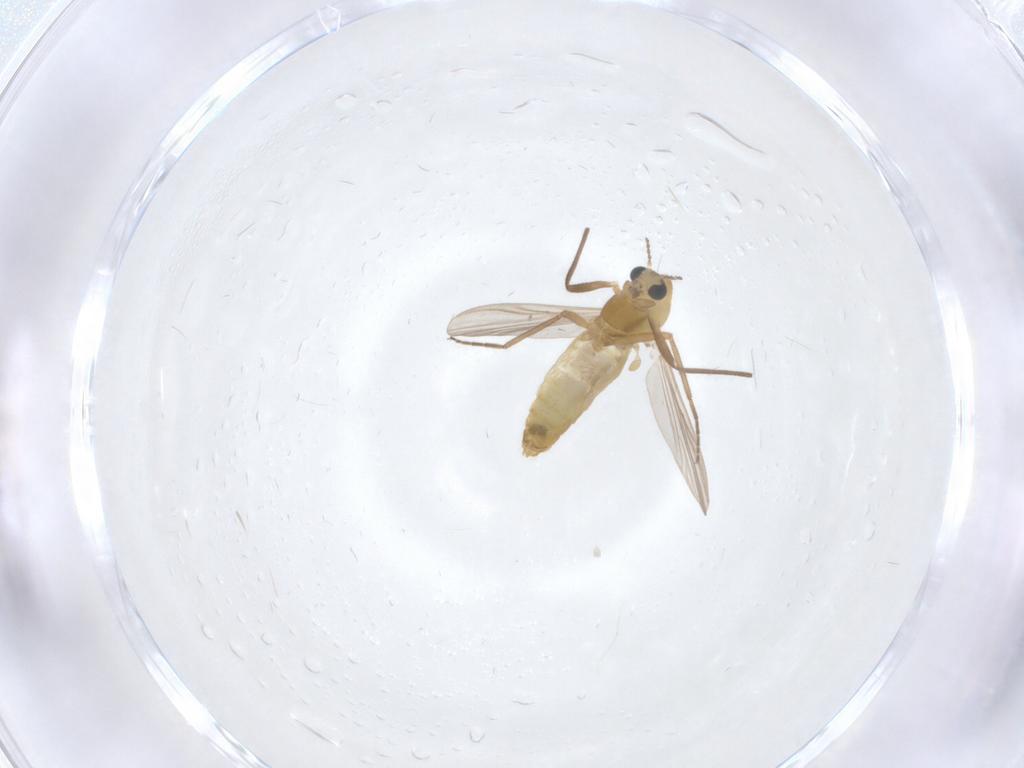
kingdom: Animalia
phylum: Arthropoda
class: Insecta
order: Diptera
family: Chironomidae
